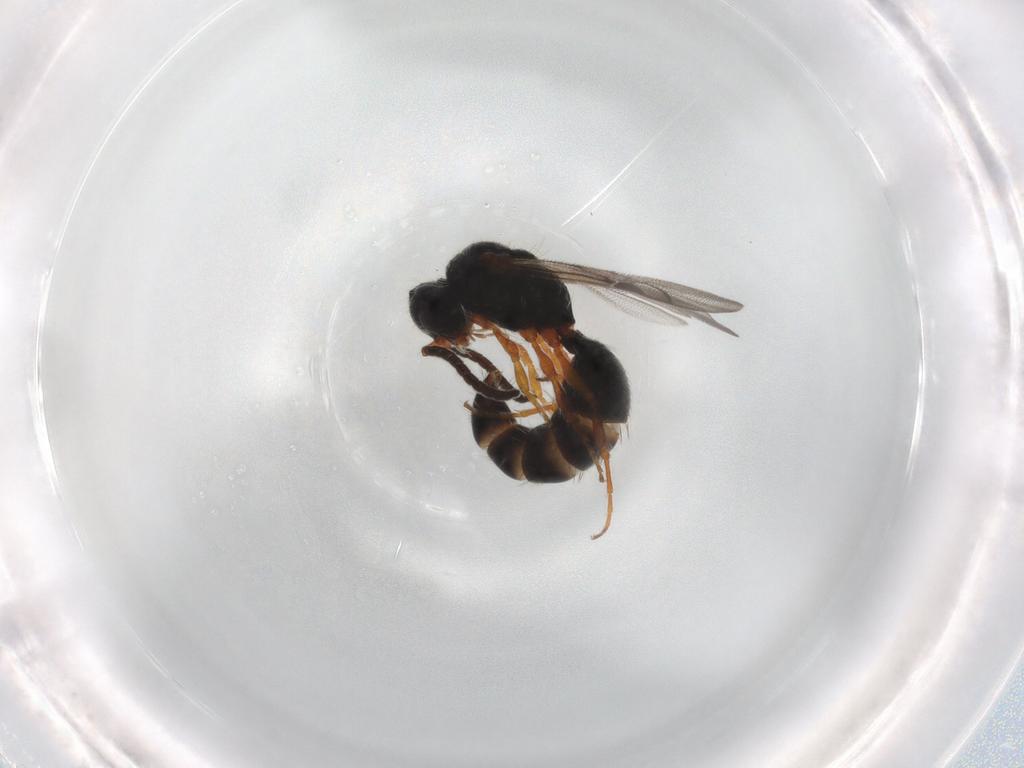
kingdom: Animalia
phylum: Arthropoda
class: Insecta
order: Hymenoptera
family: Mutillidae
